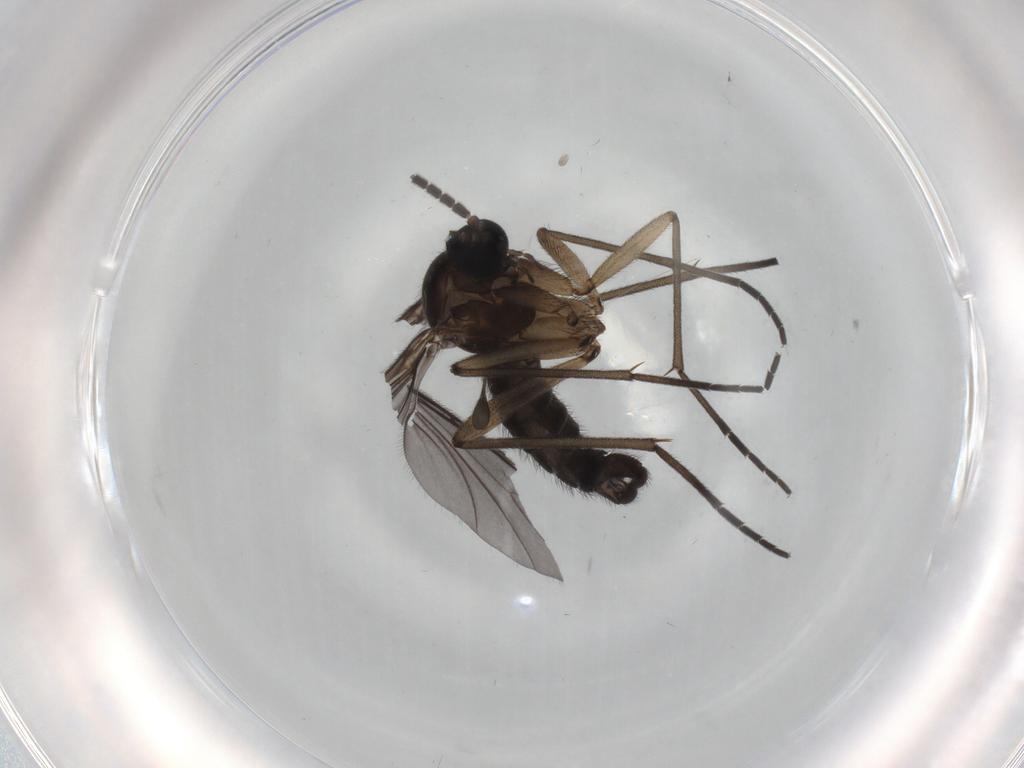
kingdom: Animalia
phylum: Arthropoda
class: Insecta
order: Diptera
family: Sciaridae
